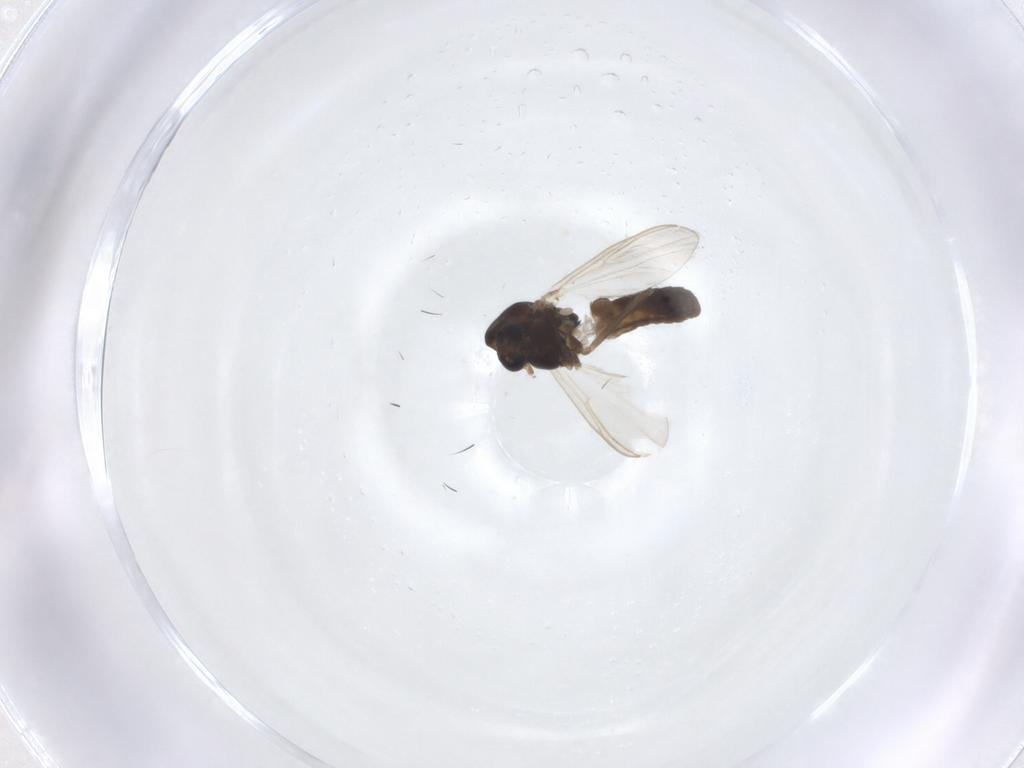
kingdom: Animalia
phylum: Arthropoda
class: Insecta
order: Diptera
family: Chironomidae
